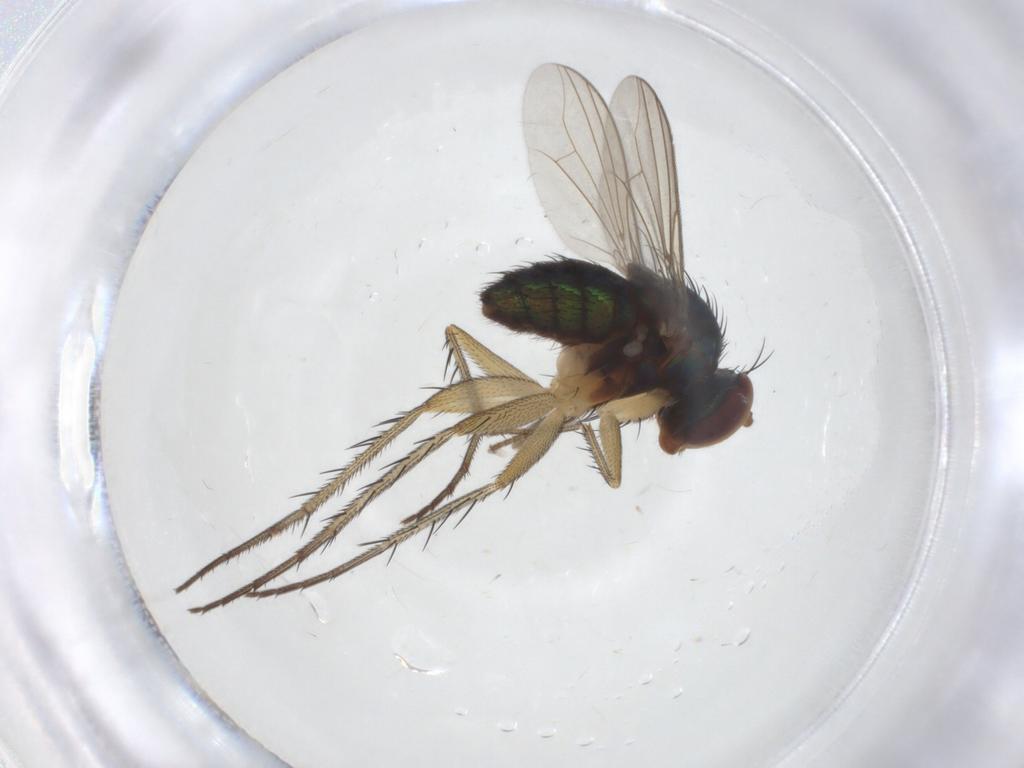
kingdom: Animalia
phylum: Arthropoda
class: Insecta
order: Diptera
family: Dolichopodidae
